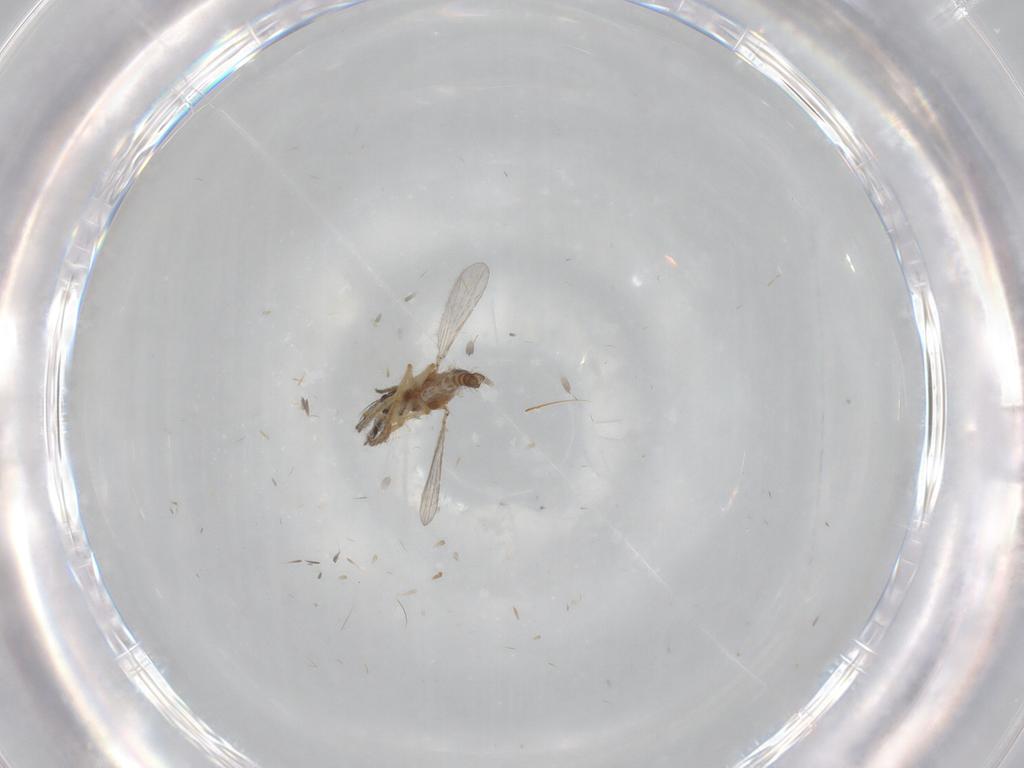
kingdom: Animalia
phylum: Arthropoda
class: Insecta
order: Diptera
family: Ceratopogonidae
